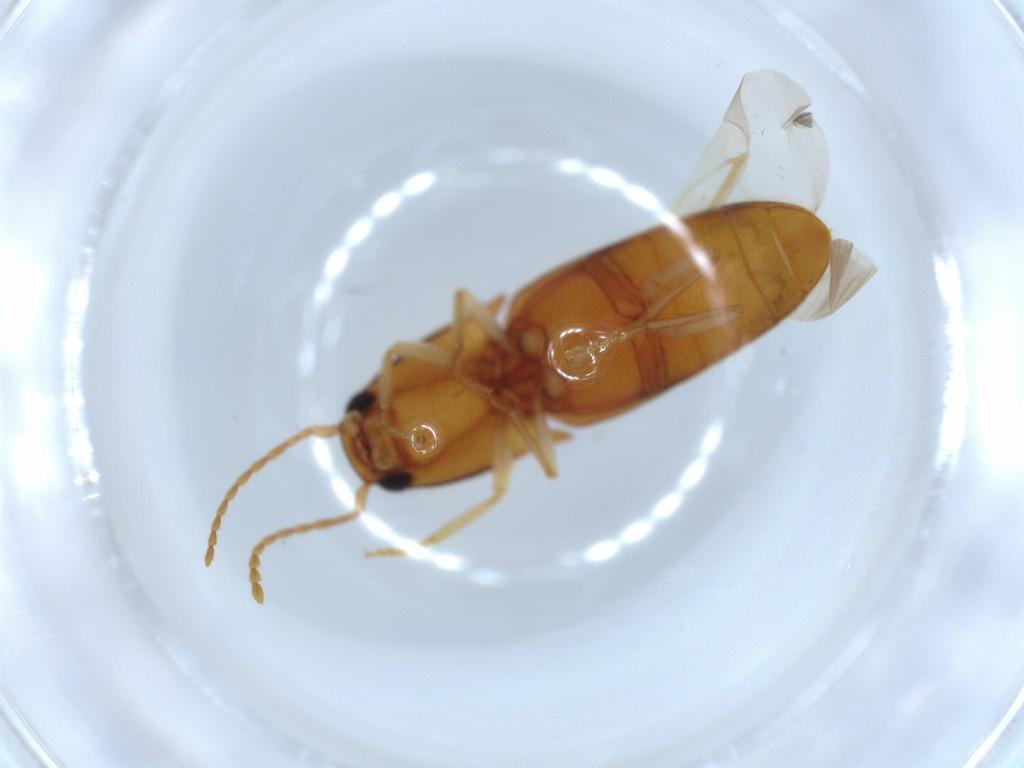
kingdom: Animalia
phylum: Arthropoda
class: Insecta
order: Coleoptera
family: Elateridae
